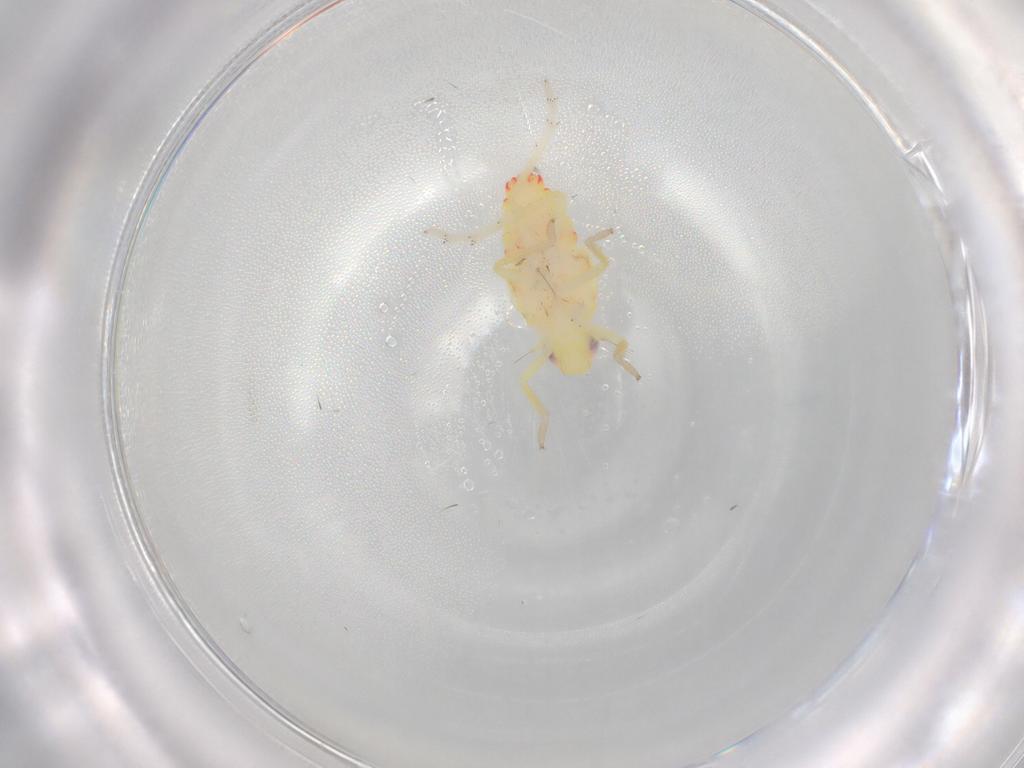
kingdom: Animalia
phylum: Arthropoda
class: Insecta
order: Hemiptera
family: Tropiduchidae
